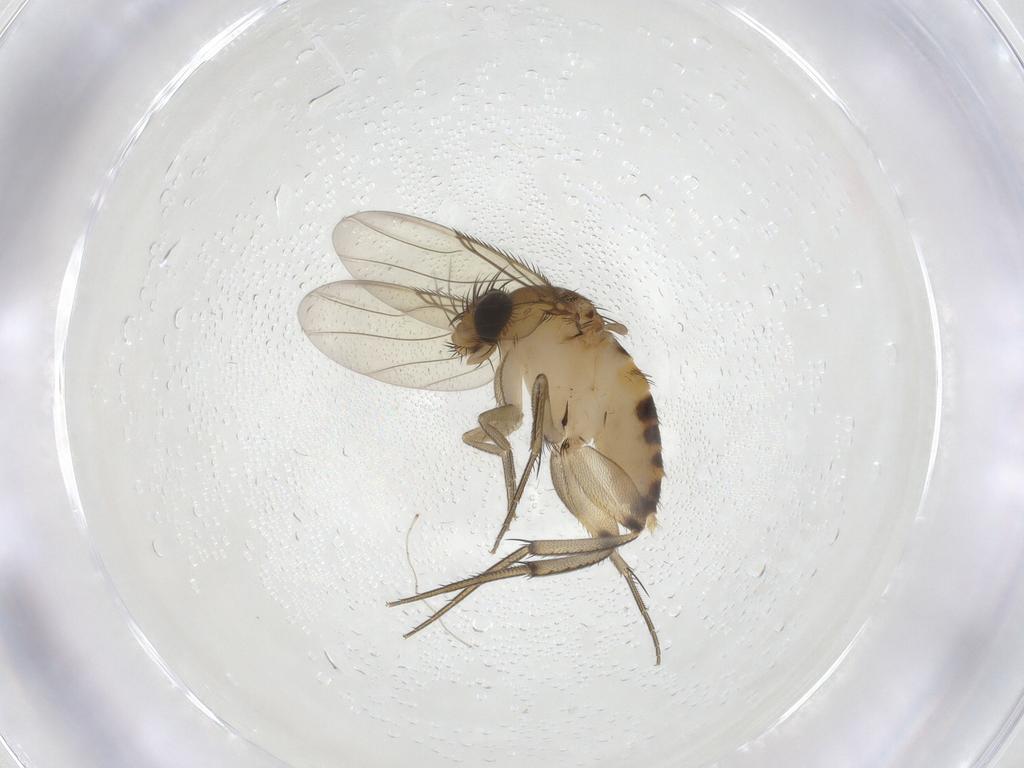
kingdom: Animalia
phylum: Arthropoda
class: Insecta
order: Diptera
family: Phoridae
